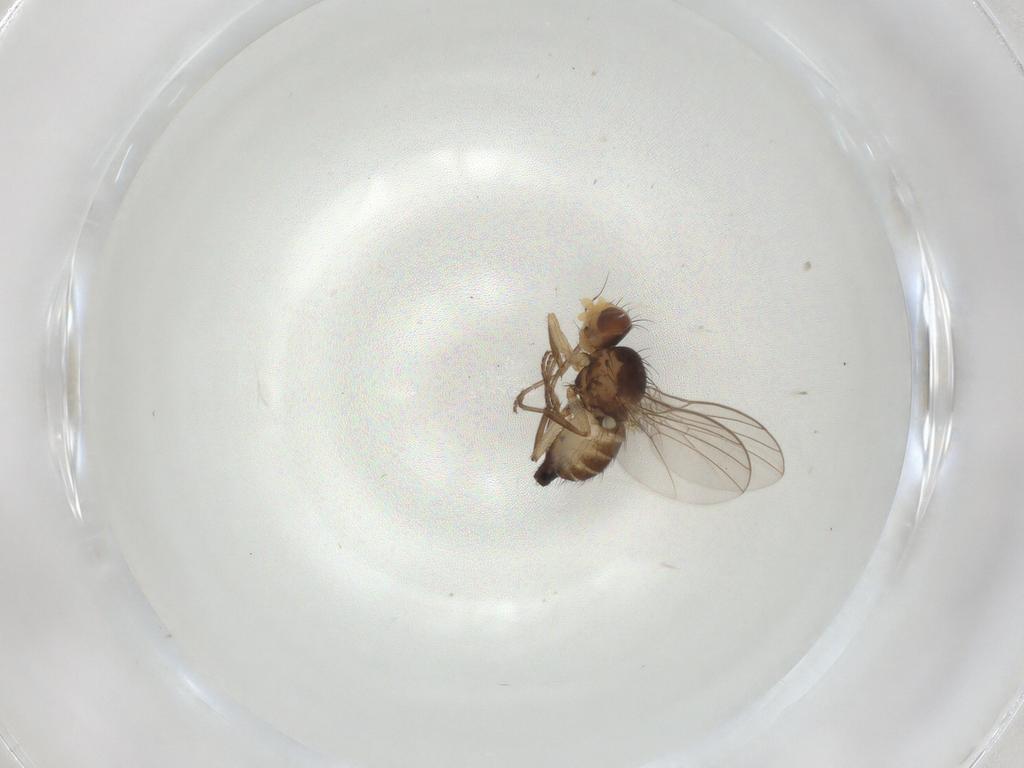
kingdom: Animalia
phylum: Arthropoda
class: Insecta
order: Diptera
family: Agromyzidae
